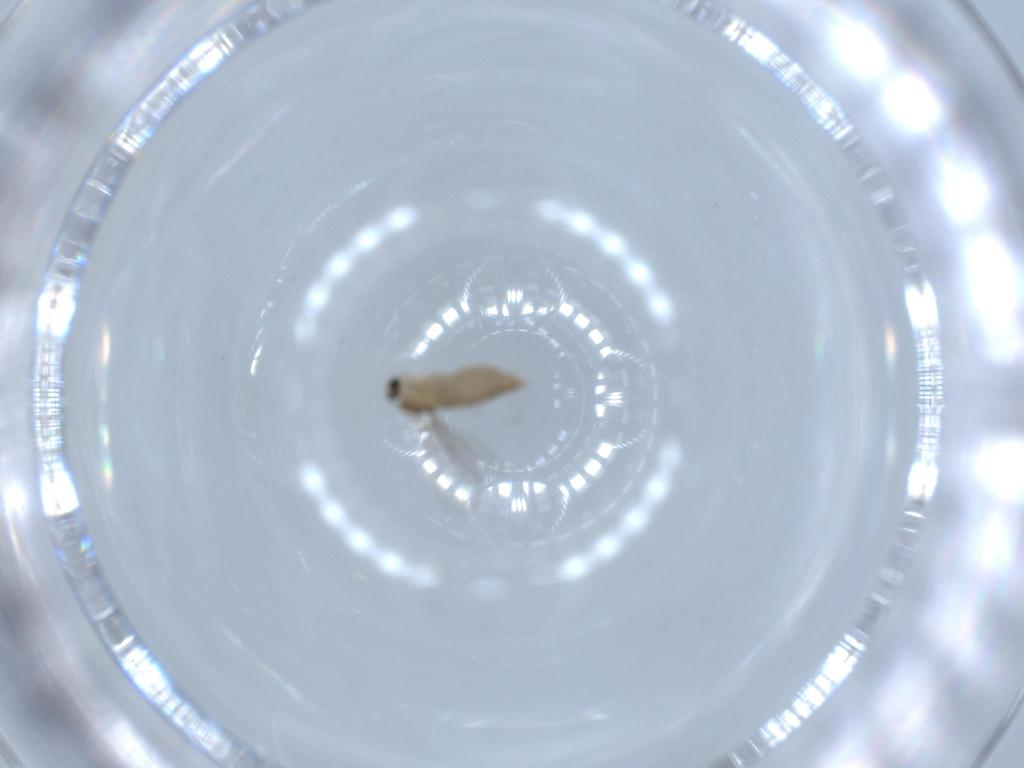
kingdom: Animalia
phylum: Arthropoda
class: Insecta
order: Diptera
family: Cecidomyiidae
